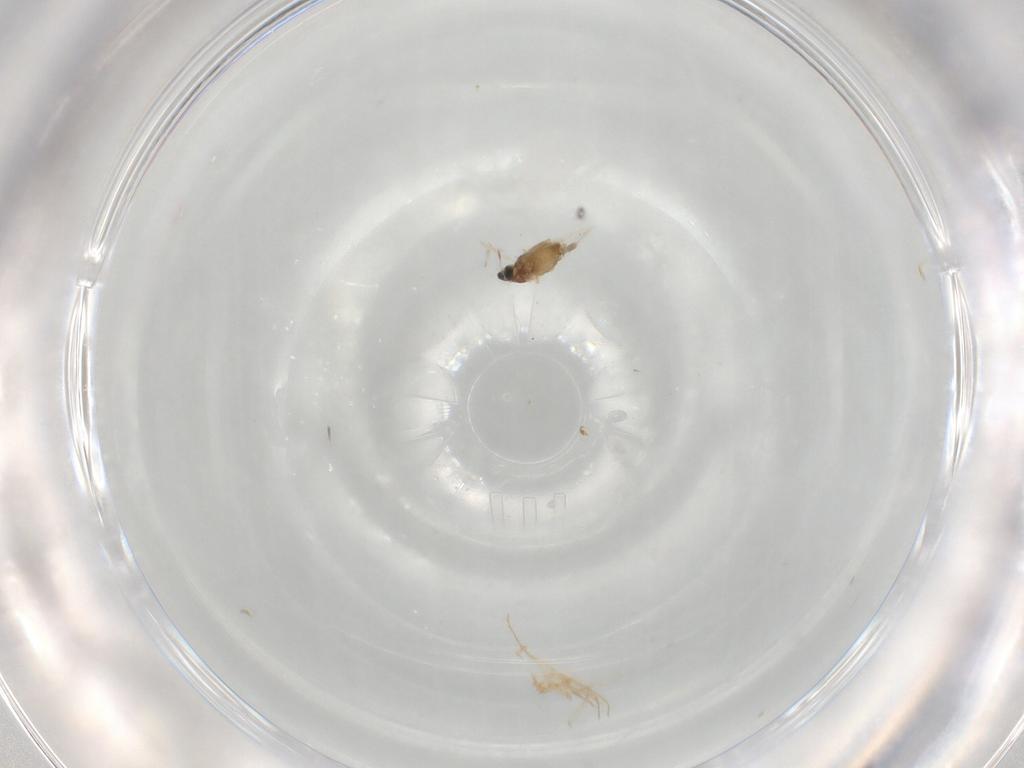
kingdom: Animalia
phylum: Arthropoda
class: Insecta
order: Diptera
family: Cecidomyiidae
